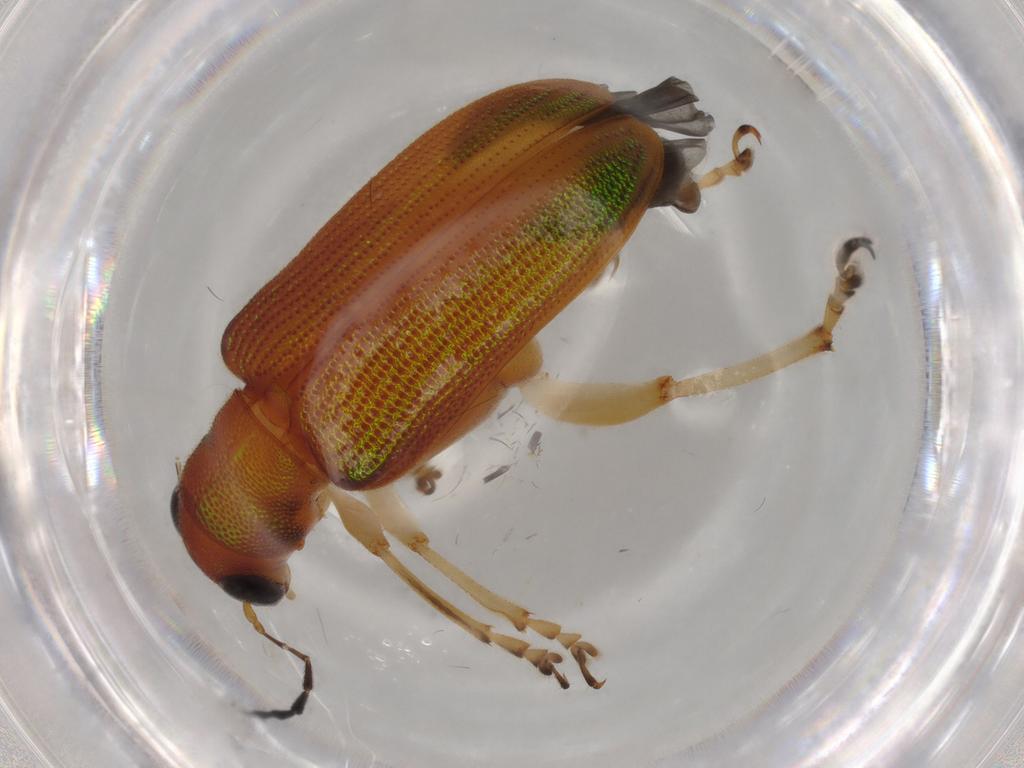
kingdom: Animalia
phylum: Arthropoda
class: Insecta
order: Coleoptera
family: Chrysomelidae
